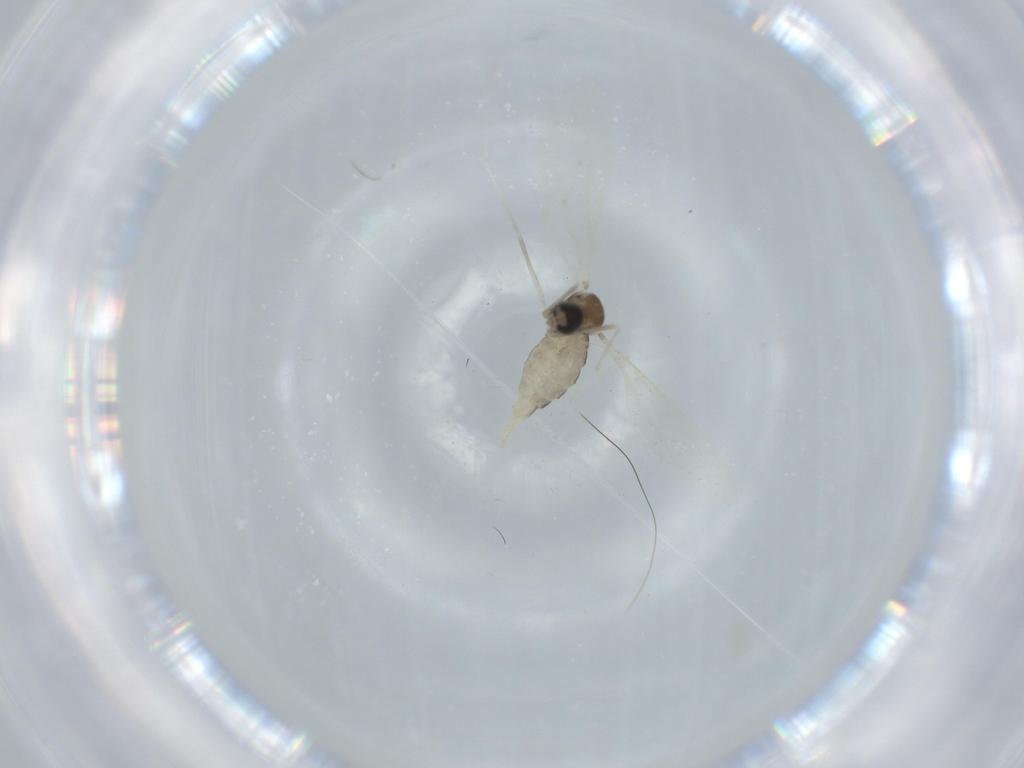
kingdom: Animalia
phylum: Arthropoda
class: Insecta
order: Diptera
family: Cecidomyiidae
